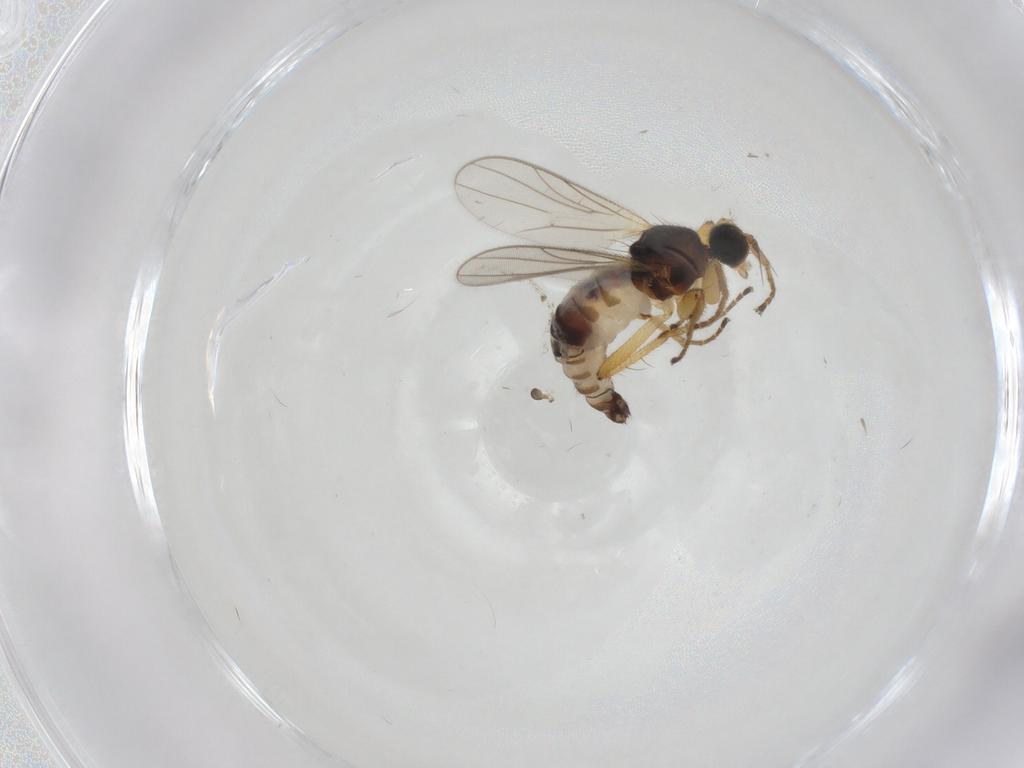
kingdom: Animalia
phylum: Arthropoda
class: Insecta
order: Diptera
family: Hybotidae
